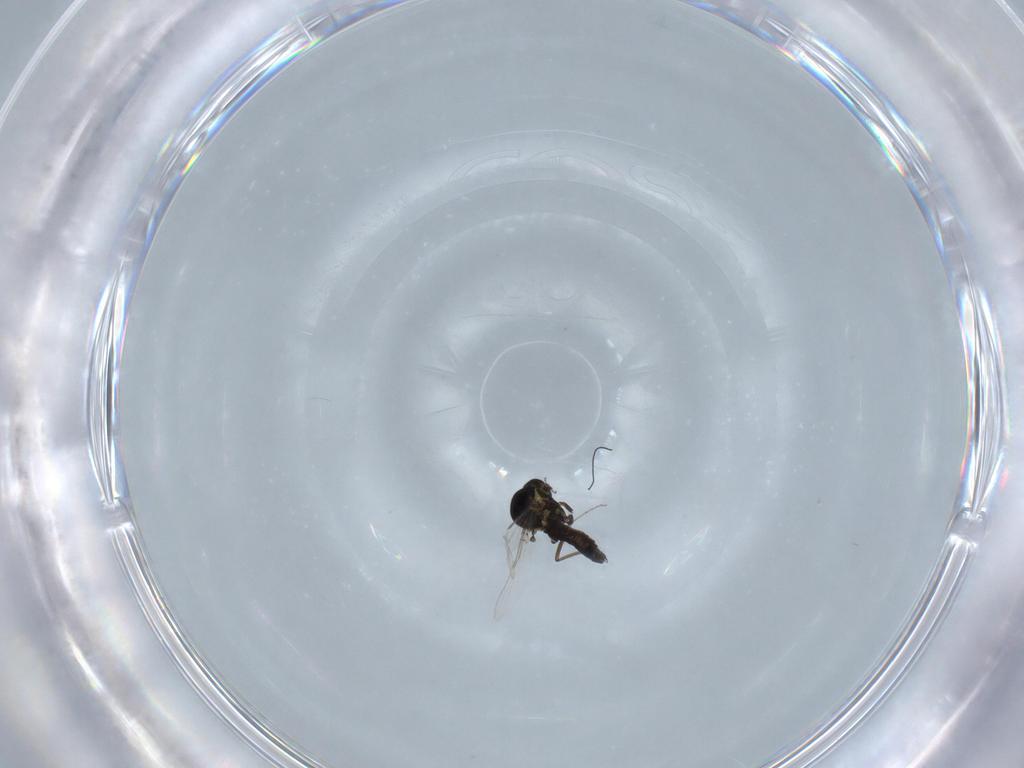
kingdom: Animalia
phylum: Arthropoda
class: Insecta
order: Diptera
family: Ceratopogonidae
